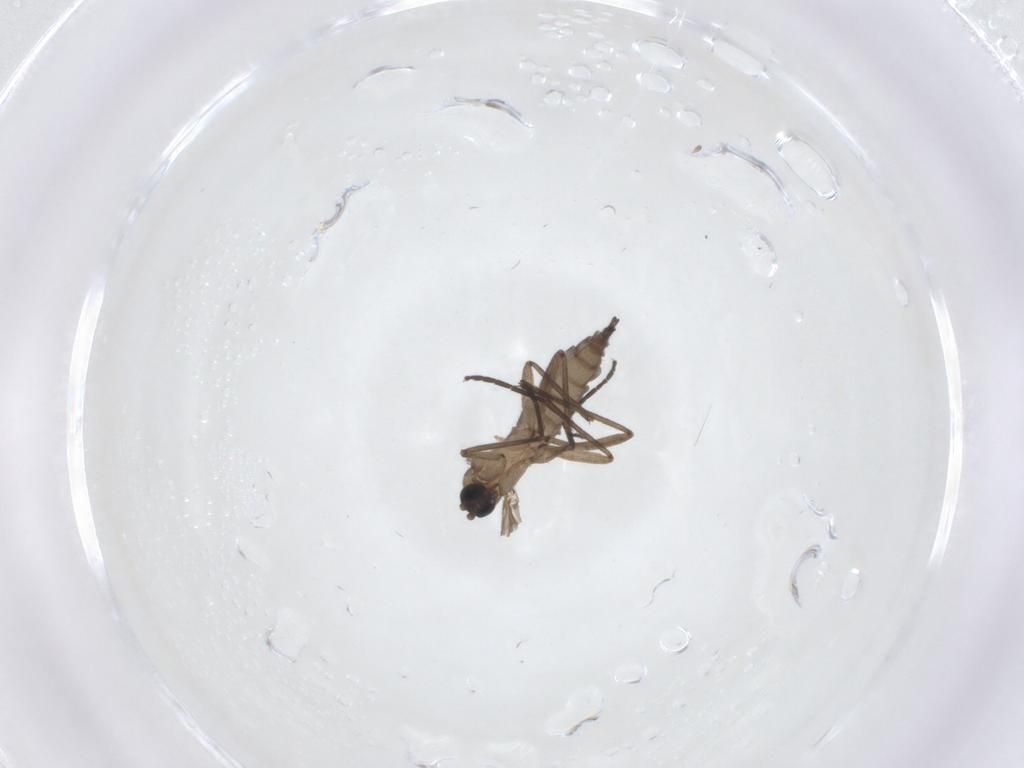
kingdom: Animalia
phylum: Arthropoda
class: Insecta
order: Diptera
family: Sciaridae
